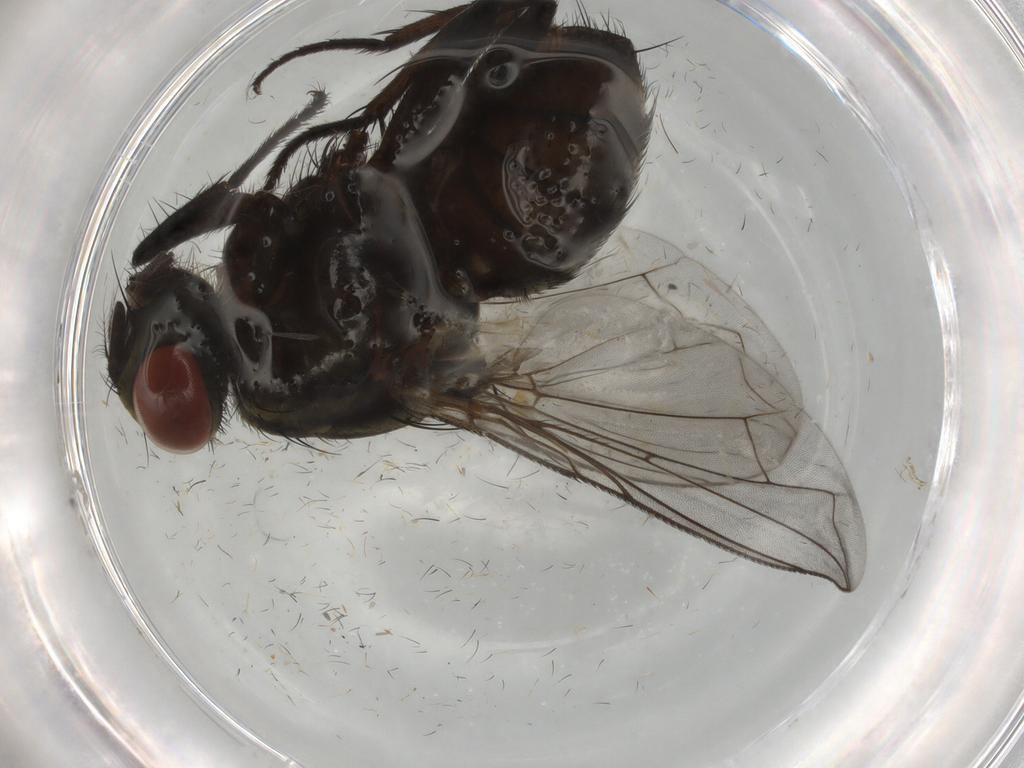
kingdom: Animalia
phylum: Arthropoda
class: Insecta
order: Diptera
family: Sarcophagidae
